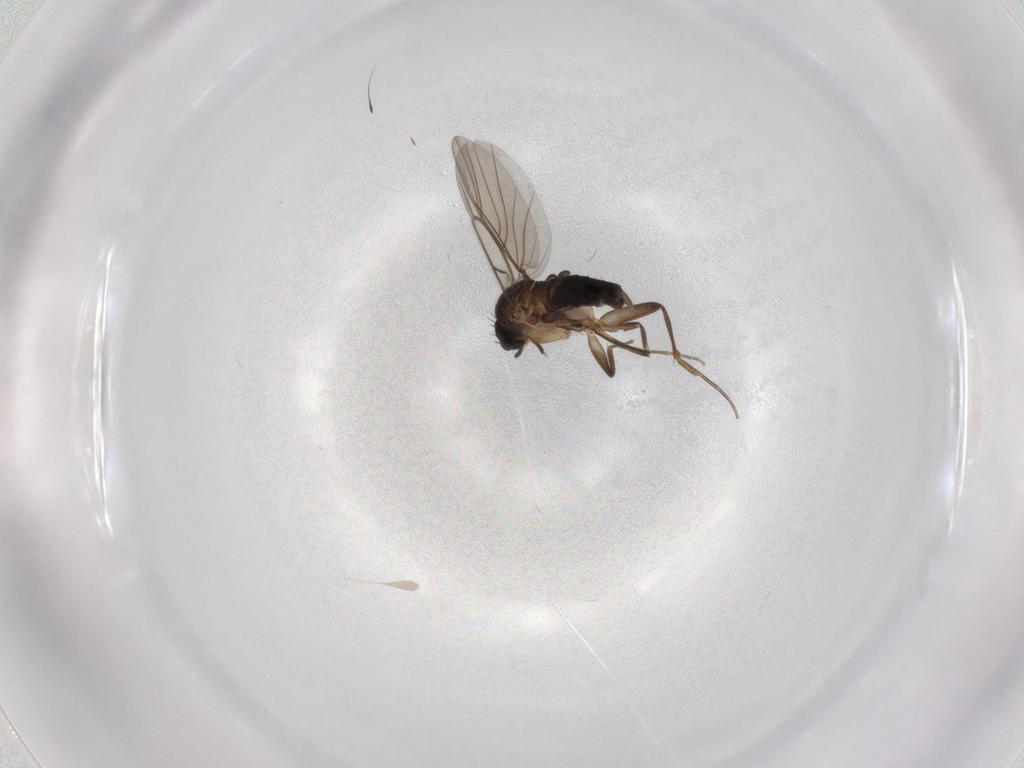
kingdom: Animalia
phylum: Arthropoda
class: Insecta
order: Diptera
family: Phoridae
